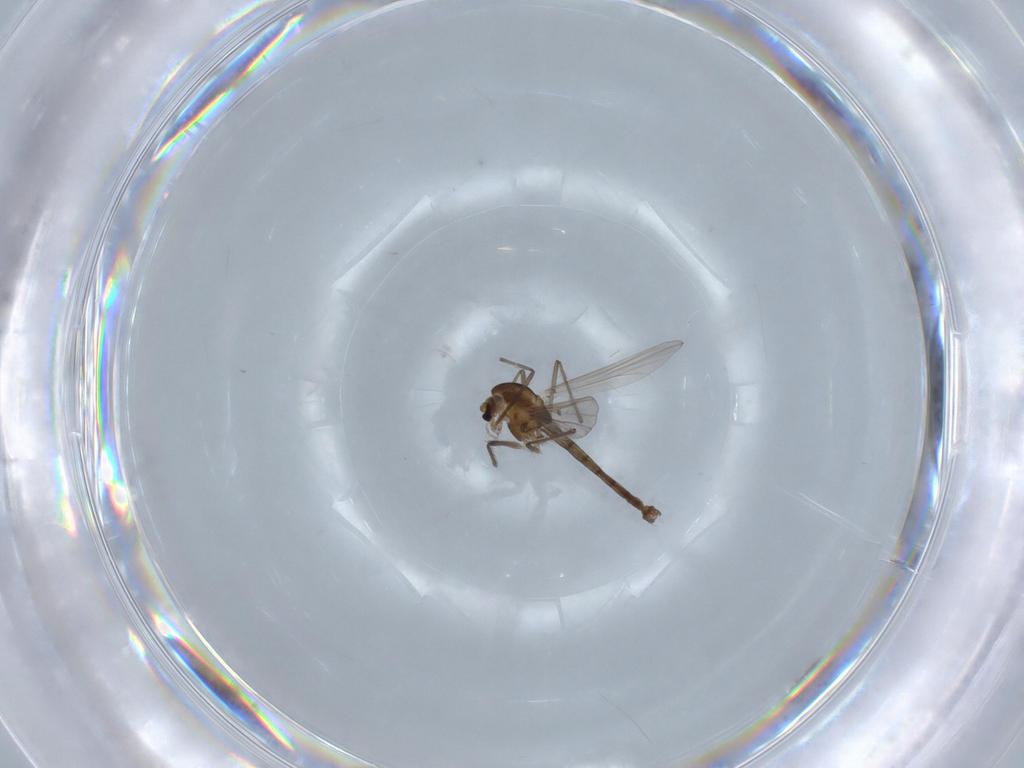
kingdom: Animalia
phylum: Arthropoda
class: Insecta
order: Diptera
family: Chironomidae
